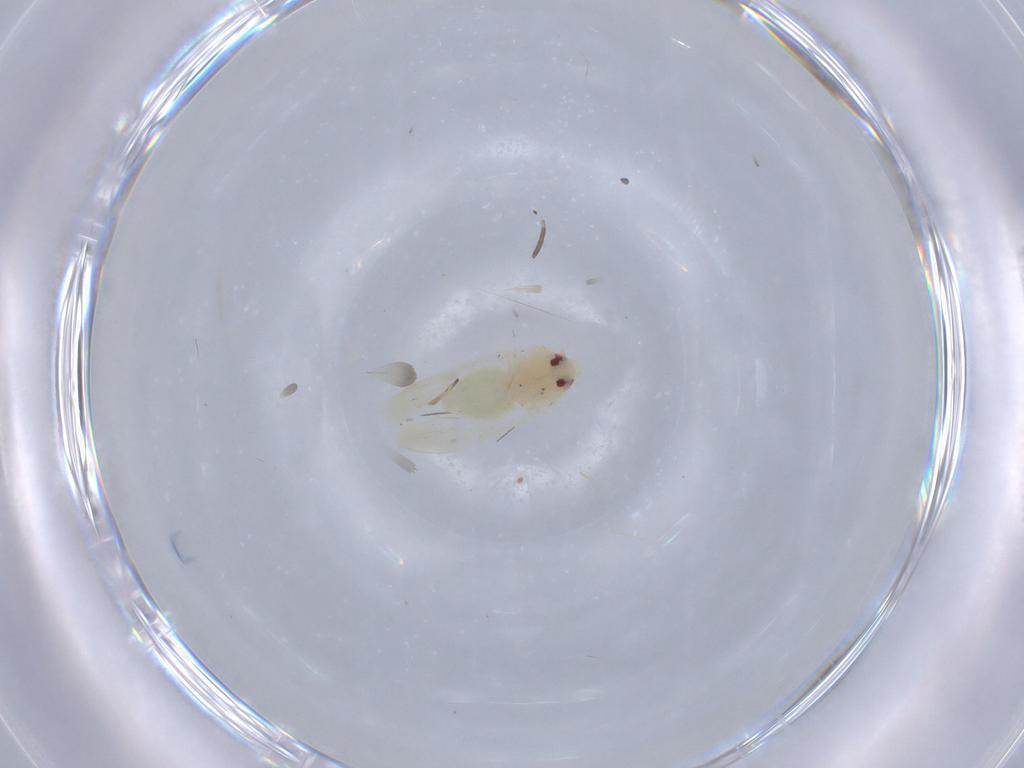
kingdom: Animalia
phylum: Arthropoda
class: Insecta
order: Hemiptera
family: Aleyrodidae
